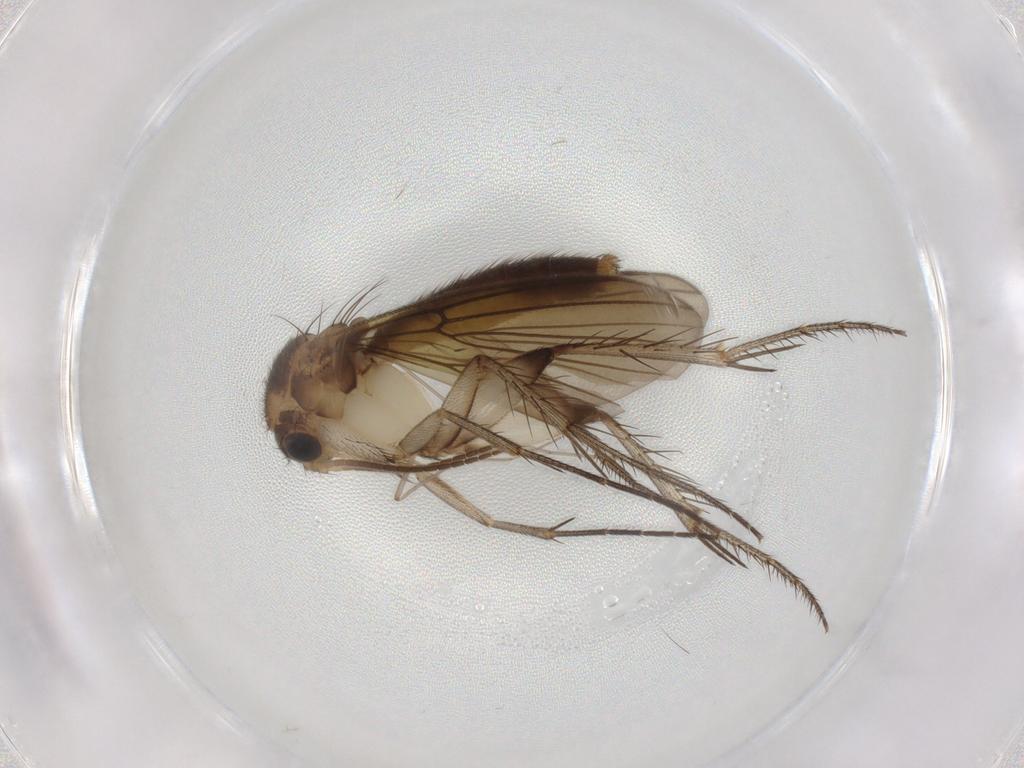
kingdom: Animalia
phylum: Arthropoda
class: Insecta
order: Diptera
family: Phoridae
